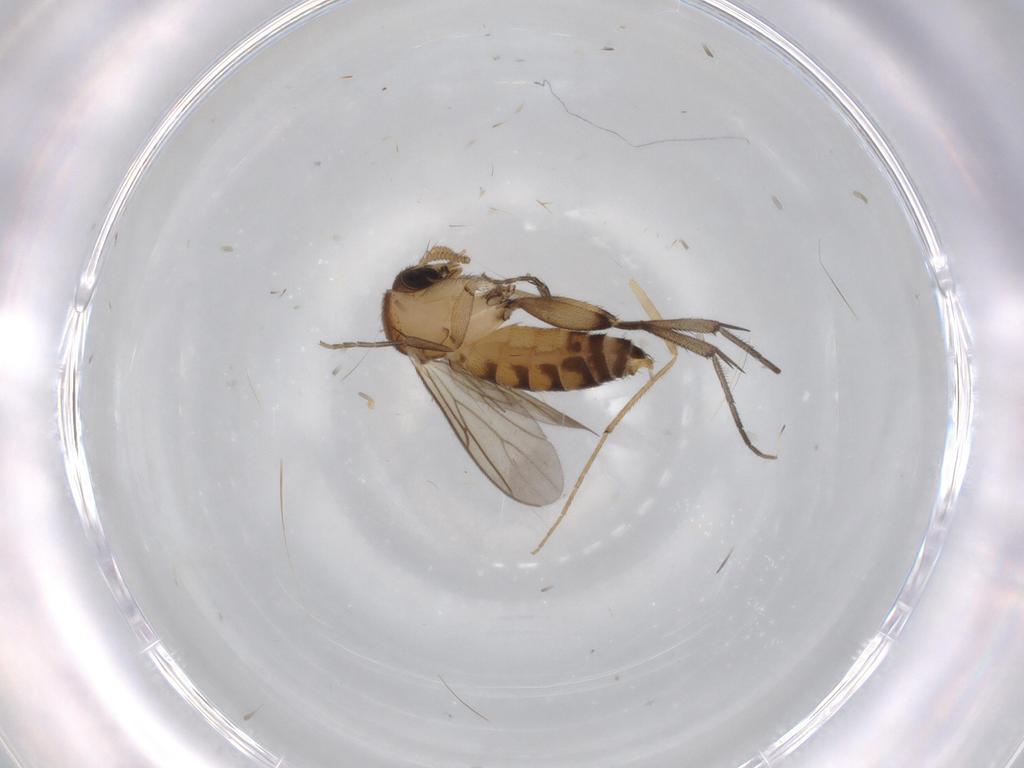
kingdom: Animalia
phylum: Arthropoda
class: Insecta
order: Diptera
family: Mycetophilidae
